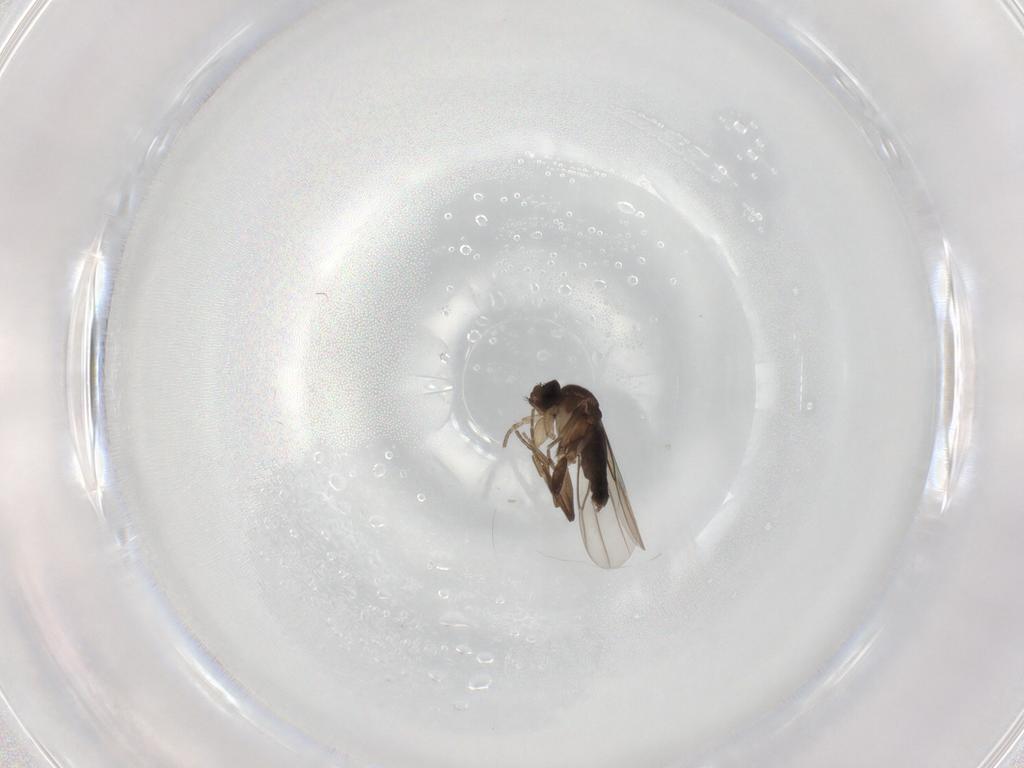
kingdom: Animalia
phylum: Arthropoda
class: Insecta
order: Diptera
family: Phoridae
